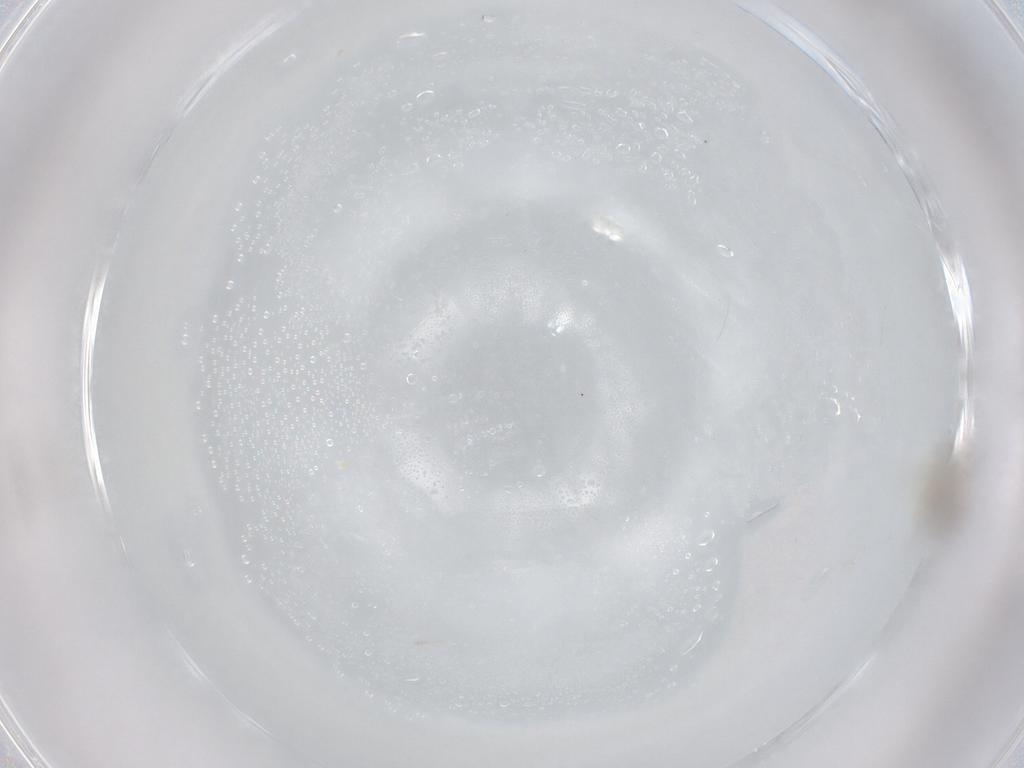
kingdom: Animalia
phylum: Arthropoda
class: Insecta
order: Hymenoptera
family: Mymaridae
